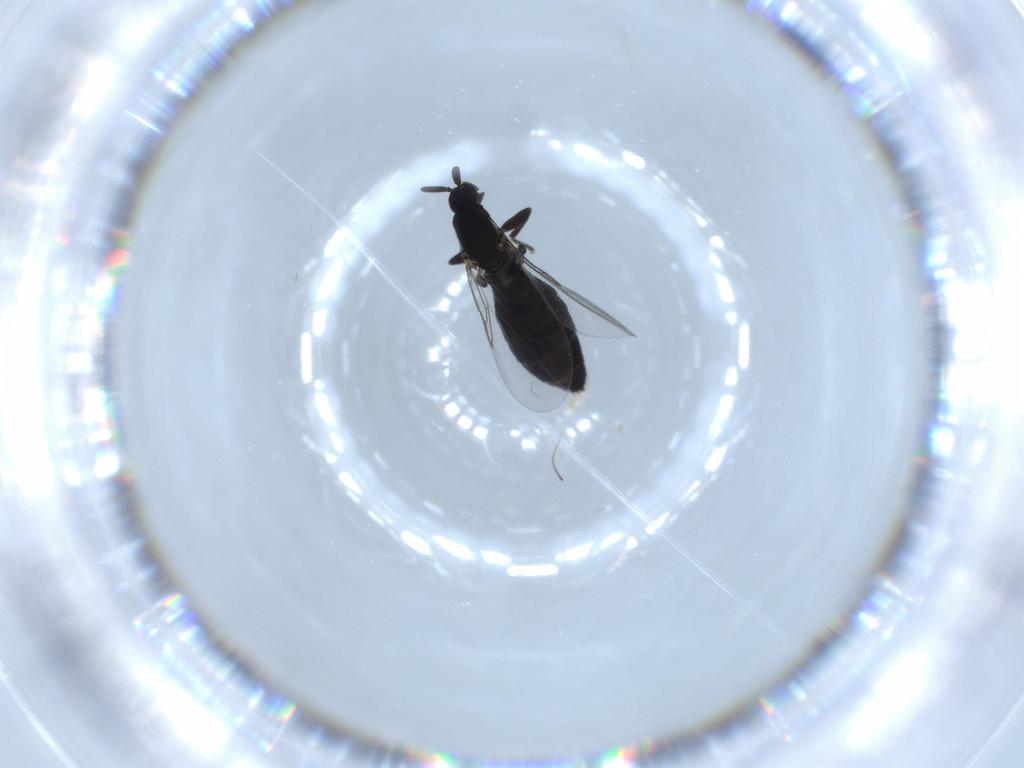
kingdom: Animalia
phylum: Arthropoda
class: Insecta
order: Diptera
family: Scatopsidae
